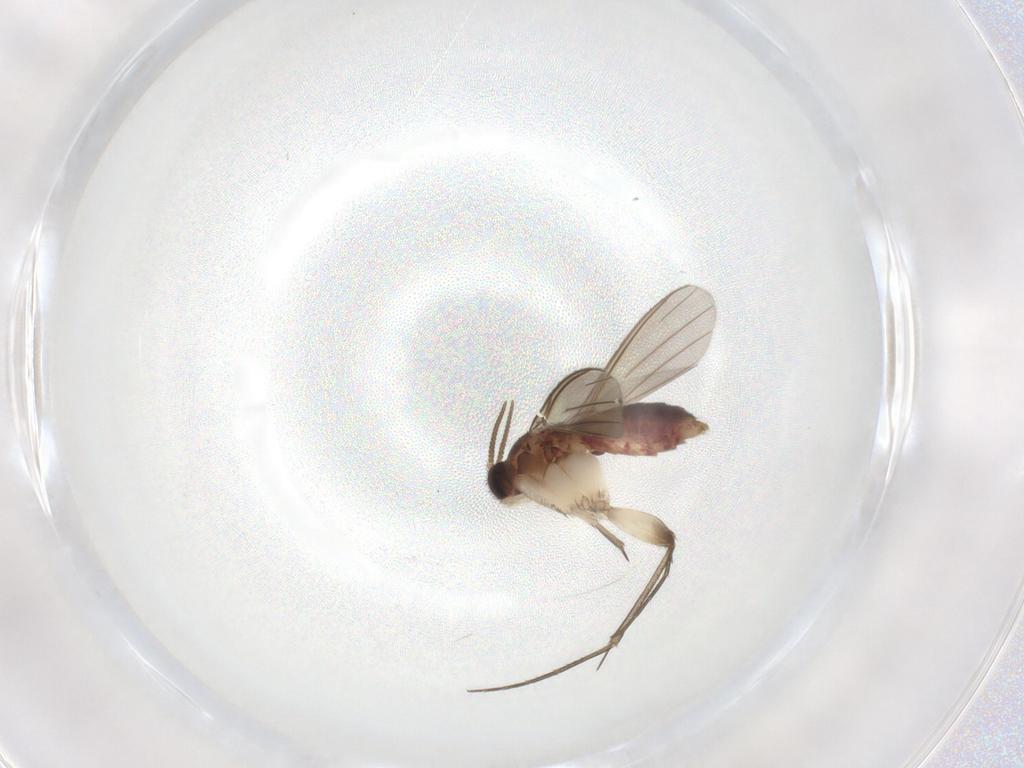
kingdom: Animalia
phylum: Arthropoda
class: Insecta
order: Diptera
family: Mycetophilidae
